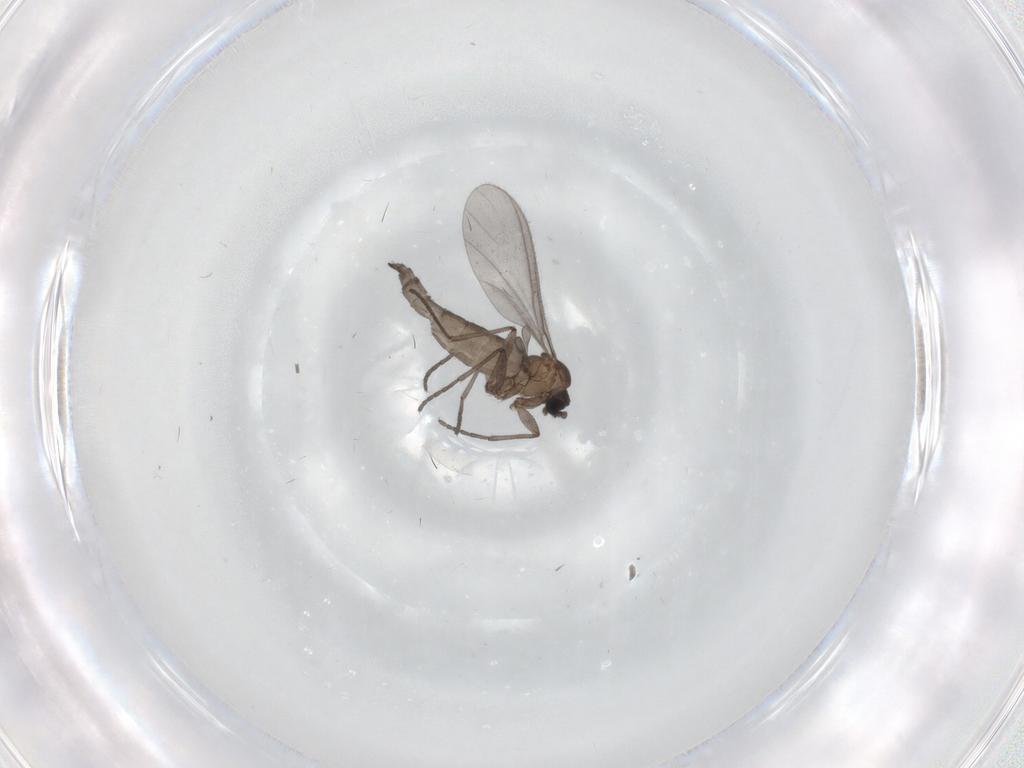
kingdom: Animalia
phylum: Arthropoda
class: Insecta
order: Diptera
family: Sciaridae
